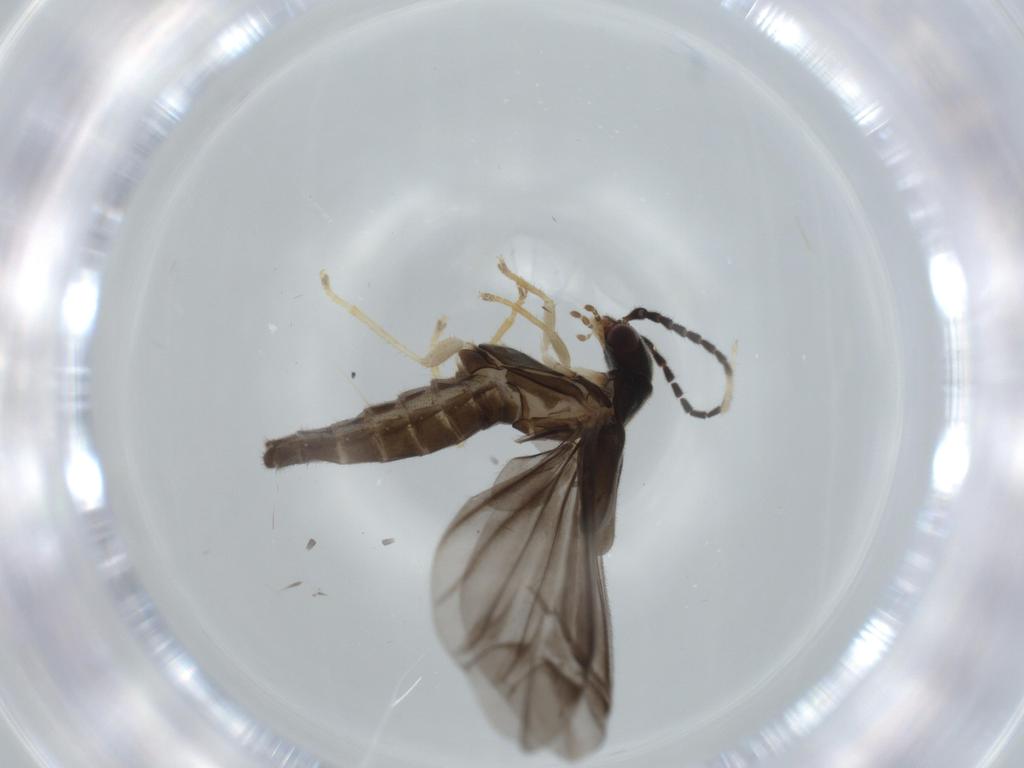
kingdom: Animalia
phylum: Arthropoda
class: Insecta
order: Coleoptera
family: Cantharidae
